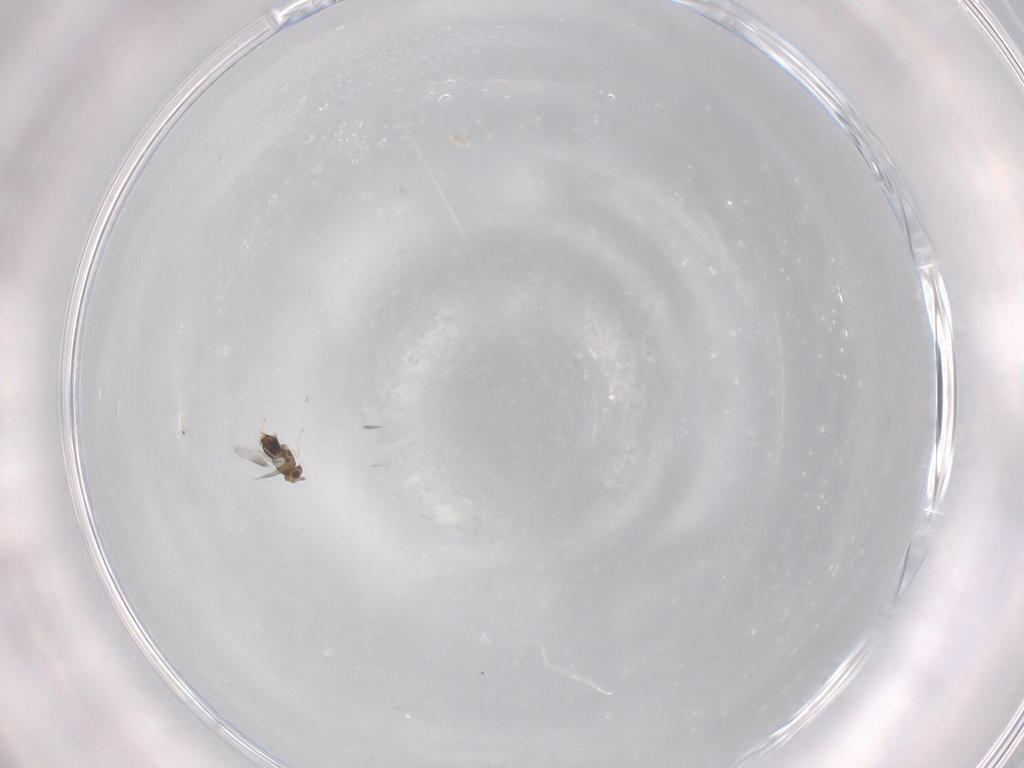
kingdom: Animalia
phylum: Arthropoda
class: Insecta
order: Hymenoptera
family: Aphelinidae
